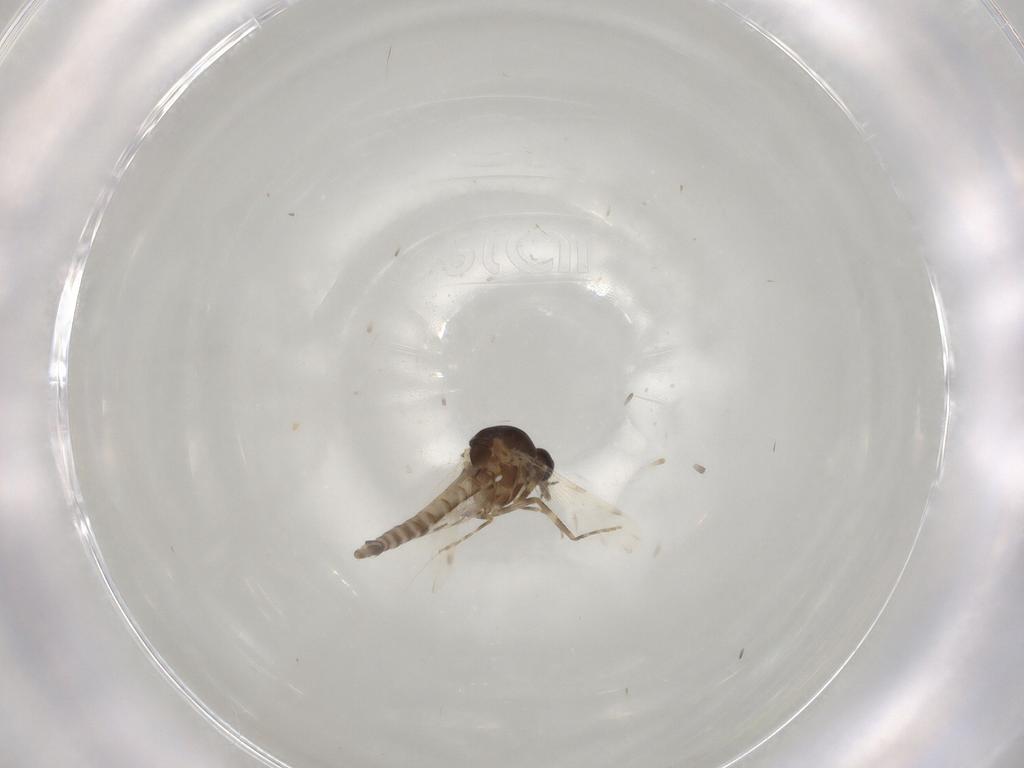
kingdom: Animalia
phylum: Arthropoda
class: Insecta
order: Diptera
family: Ceratopogonidae
